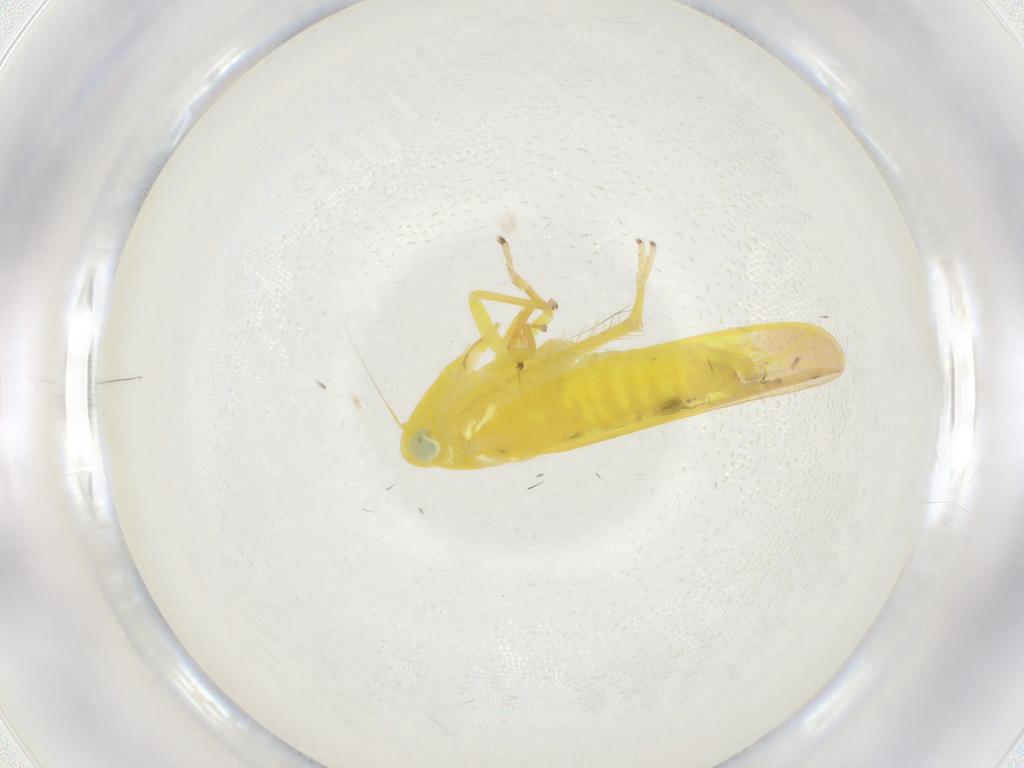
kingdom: Animalia
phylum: Arthropoda
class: Insecta
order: Hemiptera
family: Cicadellidae
